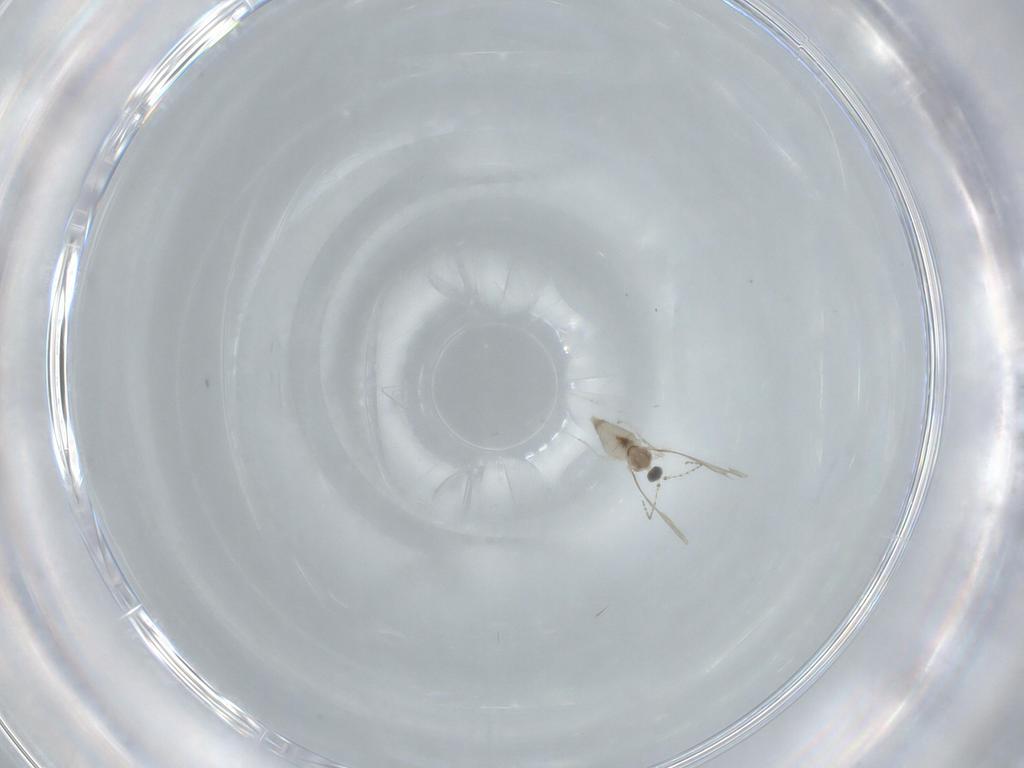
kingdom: Animalia
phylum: Arthropoda
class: Insecta
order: Diptera
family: Cecidomyiidae
